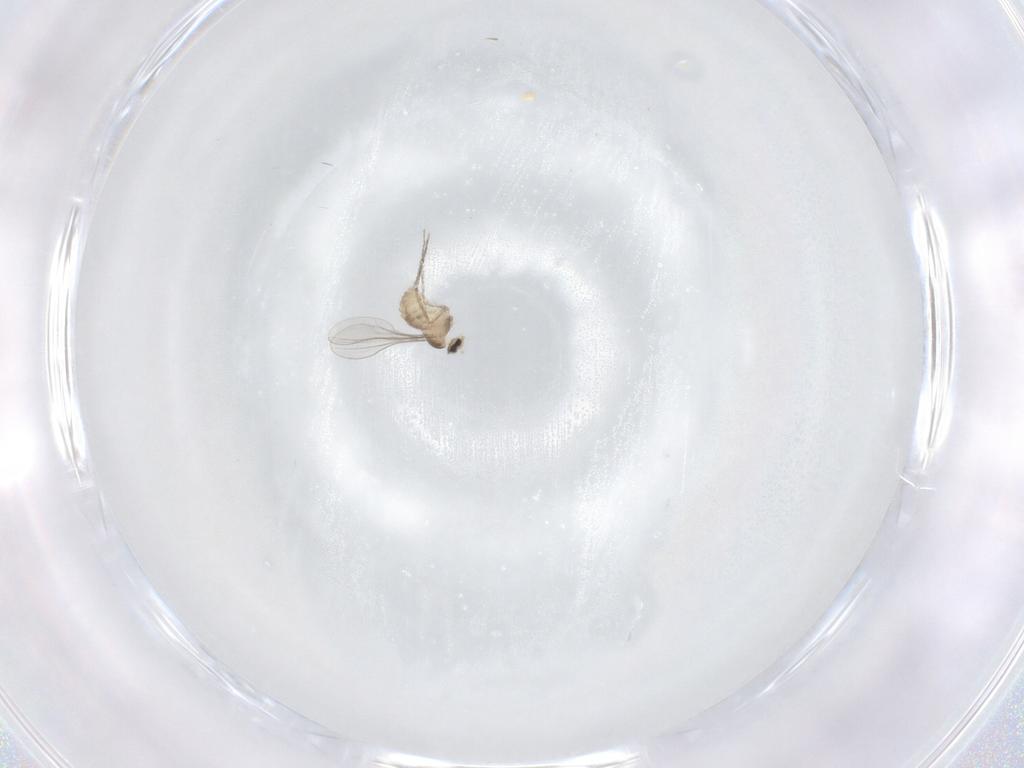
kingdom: Animalia
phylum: Arthropoda
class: Insecta
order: Diptera
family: Cecidomyiidae
